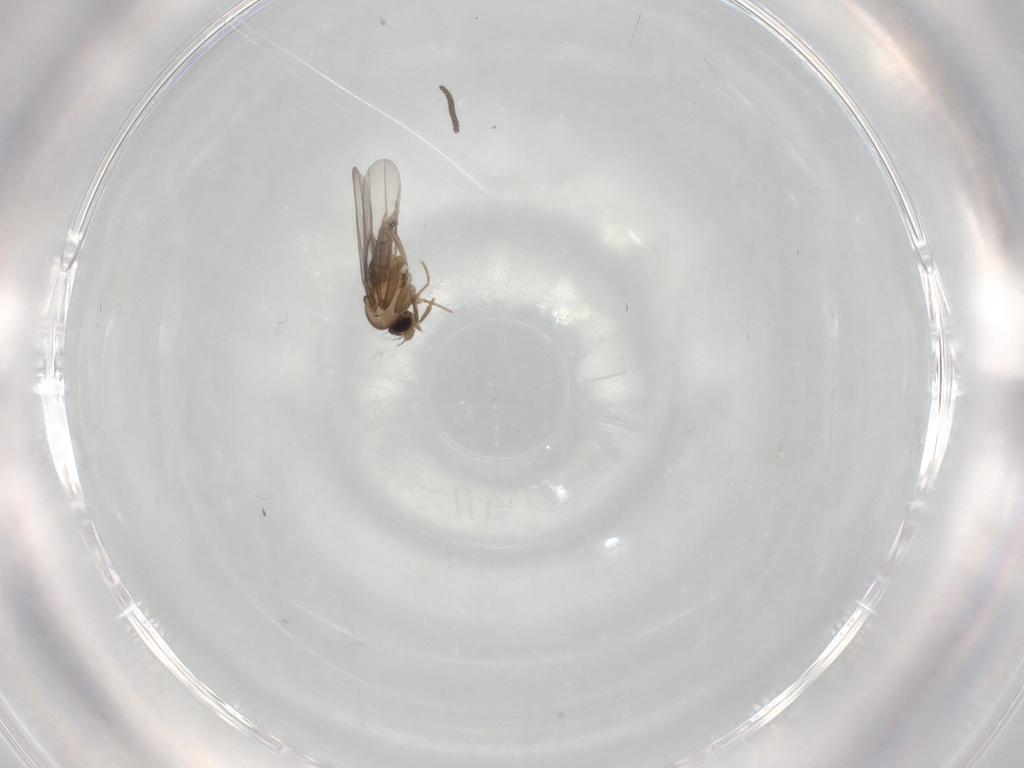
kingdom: Animalia
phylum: Arthropoda
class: Insecta
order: Diptera
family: Sciaridae
